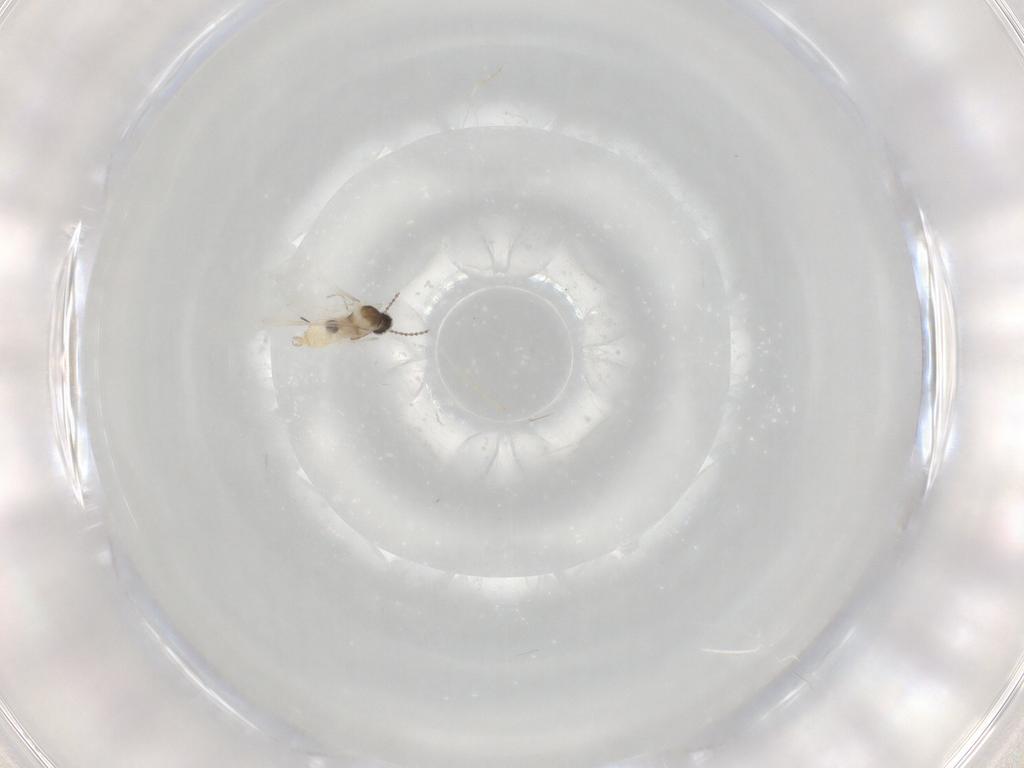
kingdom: Animalia
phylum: Arthropoda
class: Insecta
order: Diptera
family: Cecidomyiidae
